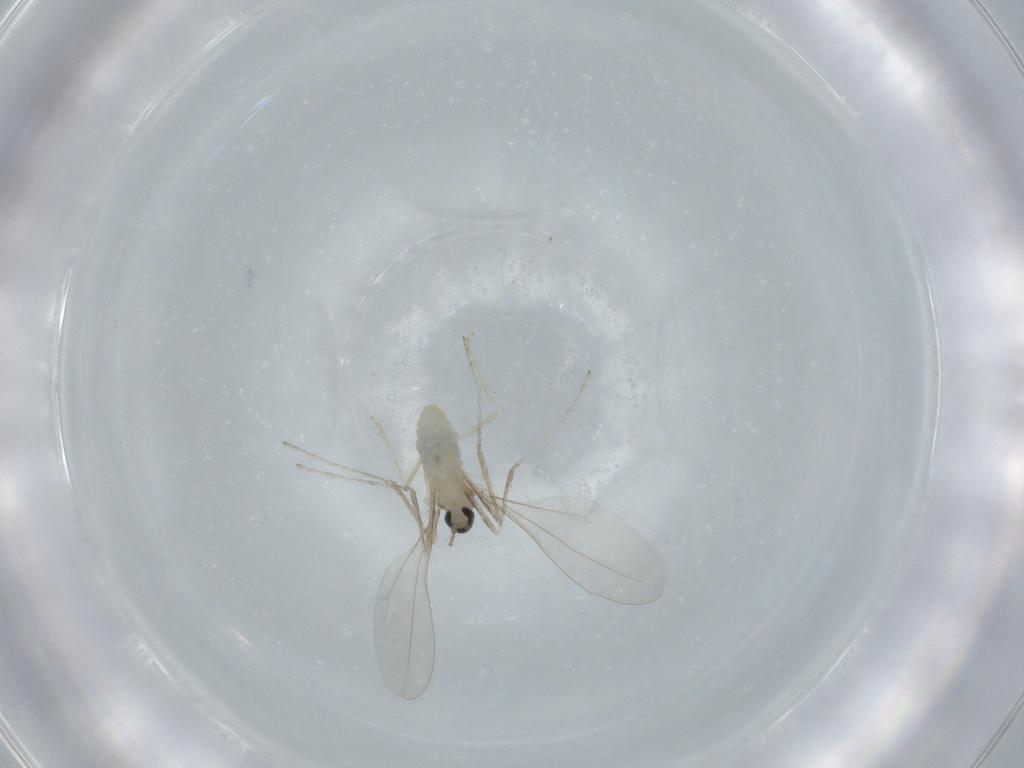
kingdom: Animalia
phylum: Arthropoda
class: Insecta
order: Diptera
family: Cecidomyiidae
